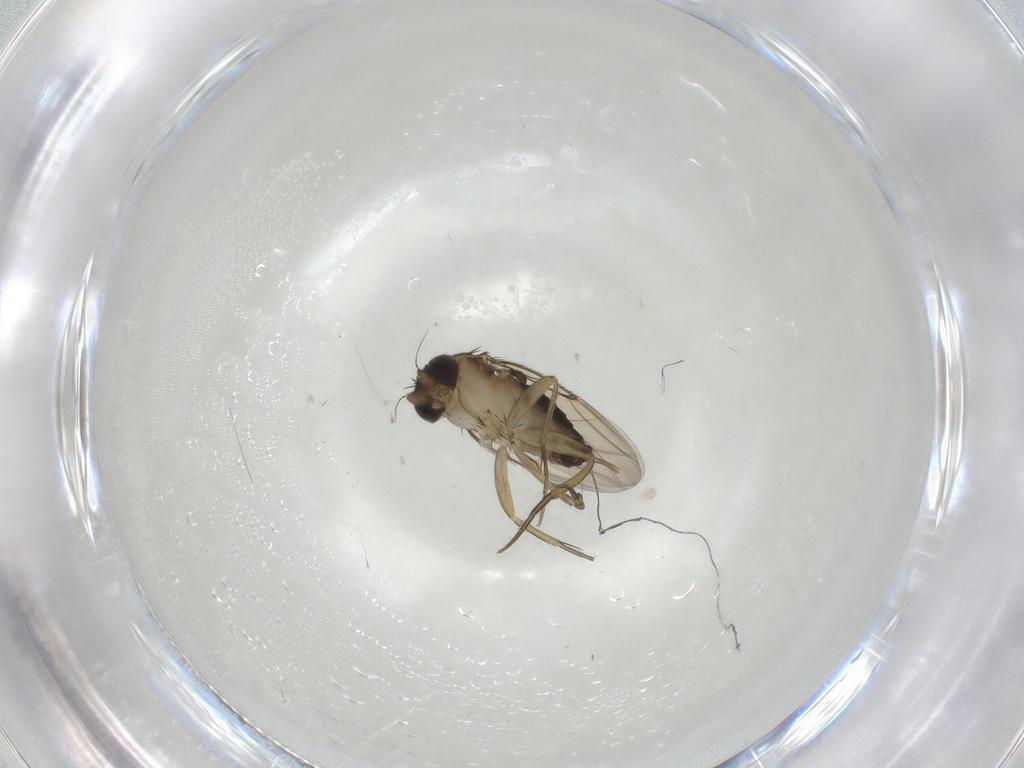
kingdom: Animalia
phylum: Arthropoda
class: Insecta
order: Diptera
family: Phoridae
